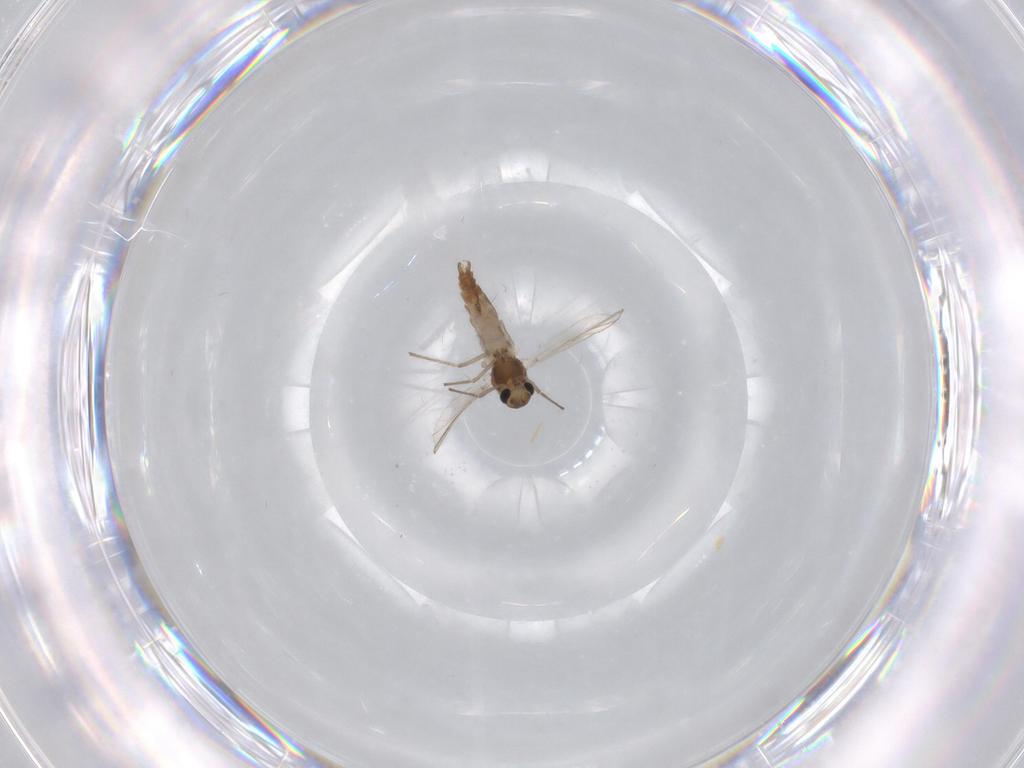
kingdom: Animalia
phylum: Arthropoda
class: Insecta
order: Diptera
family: Chironomidae
